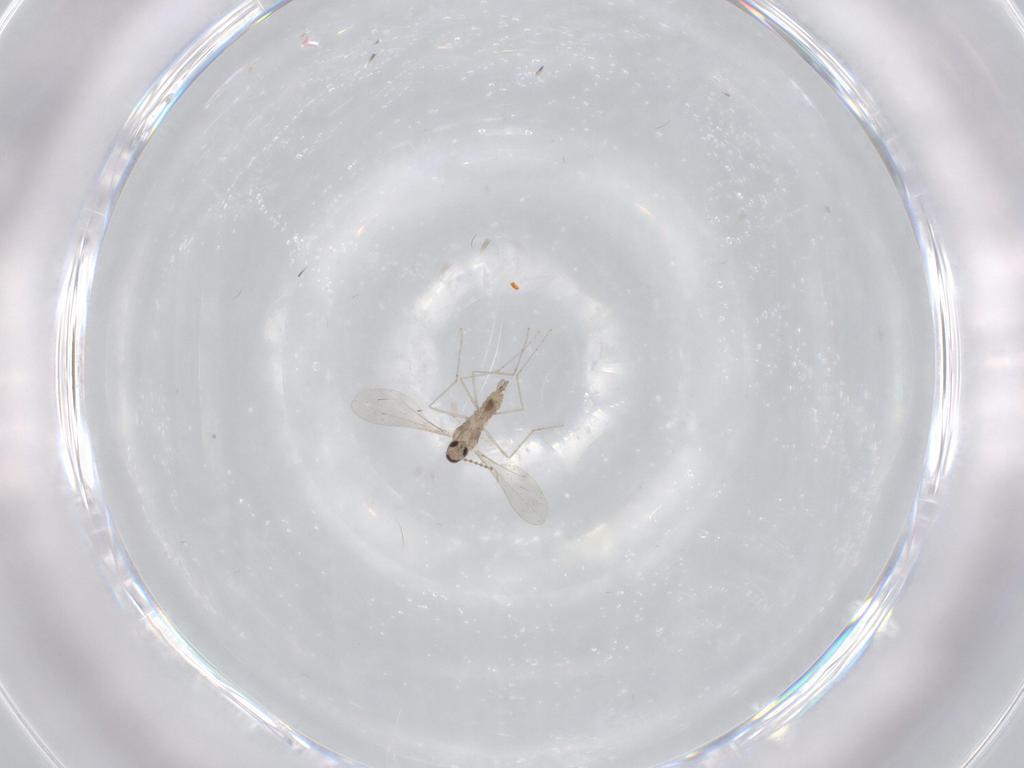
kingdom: Animalia
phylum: Arthropoda
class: Insecta
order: Diptera
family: Cecidomyiidae
